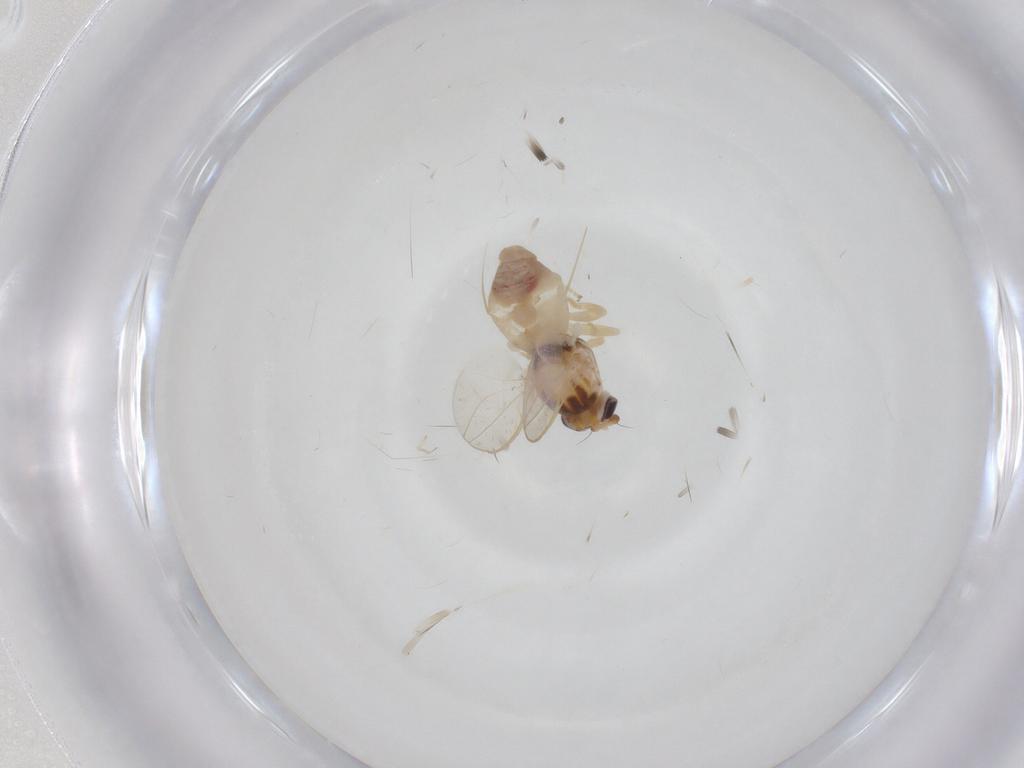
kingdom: Animalia
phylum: Arthropoda
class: Insecta
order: Diptera
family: Chloropidae
